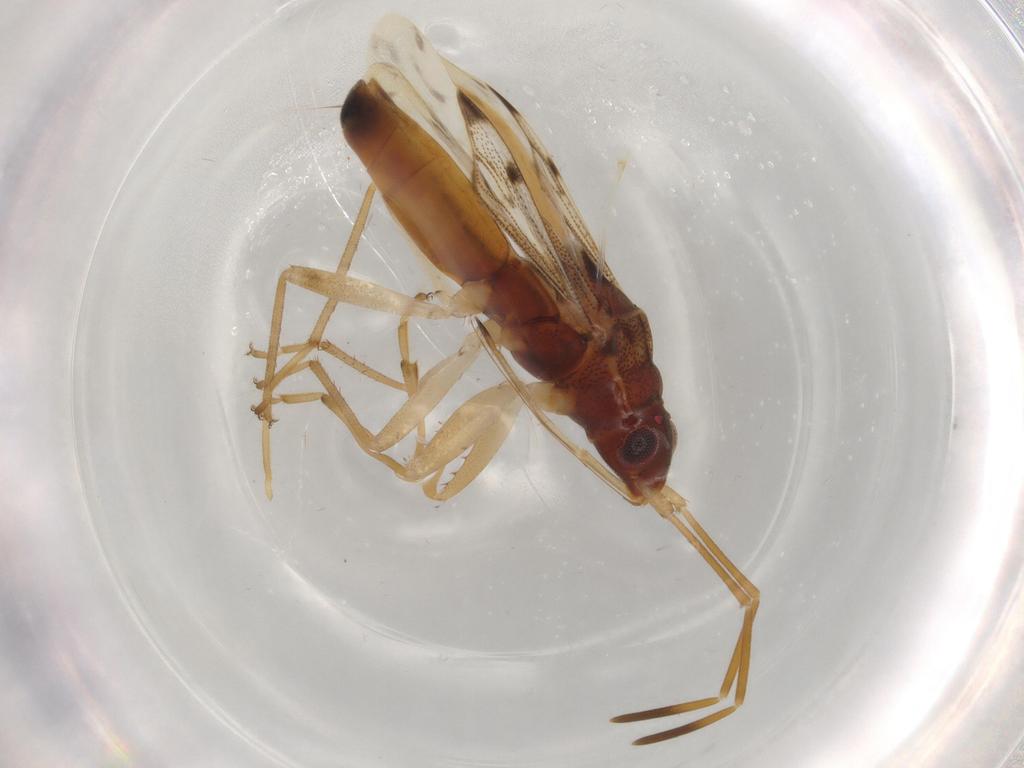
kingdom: Animalia
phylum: Arthropoda
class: Insecta
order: Hemiptera
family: Rhyparochromidae
